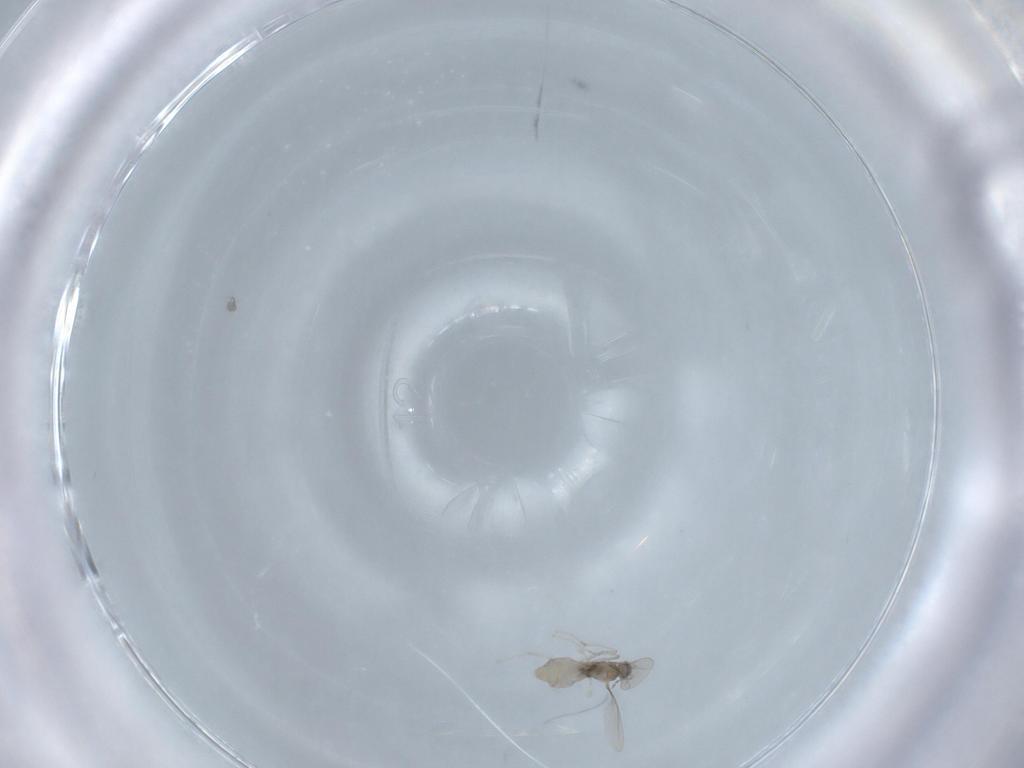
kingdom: Animalia
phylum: Arthropoda
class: Insecta
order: Diptera
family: Cecidomyiidae
